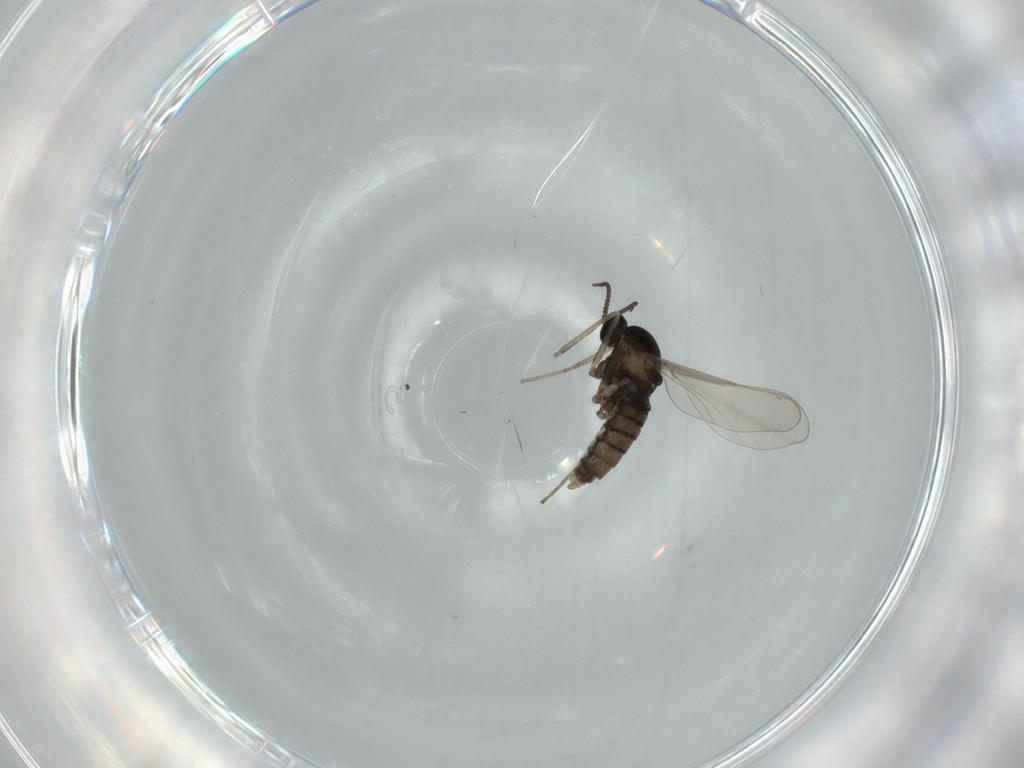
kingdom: Animalia
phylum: Arthropoda
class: Insecta
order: Diptera
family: Cecidomyiidae
